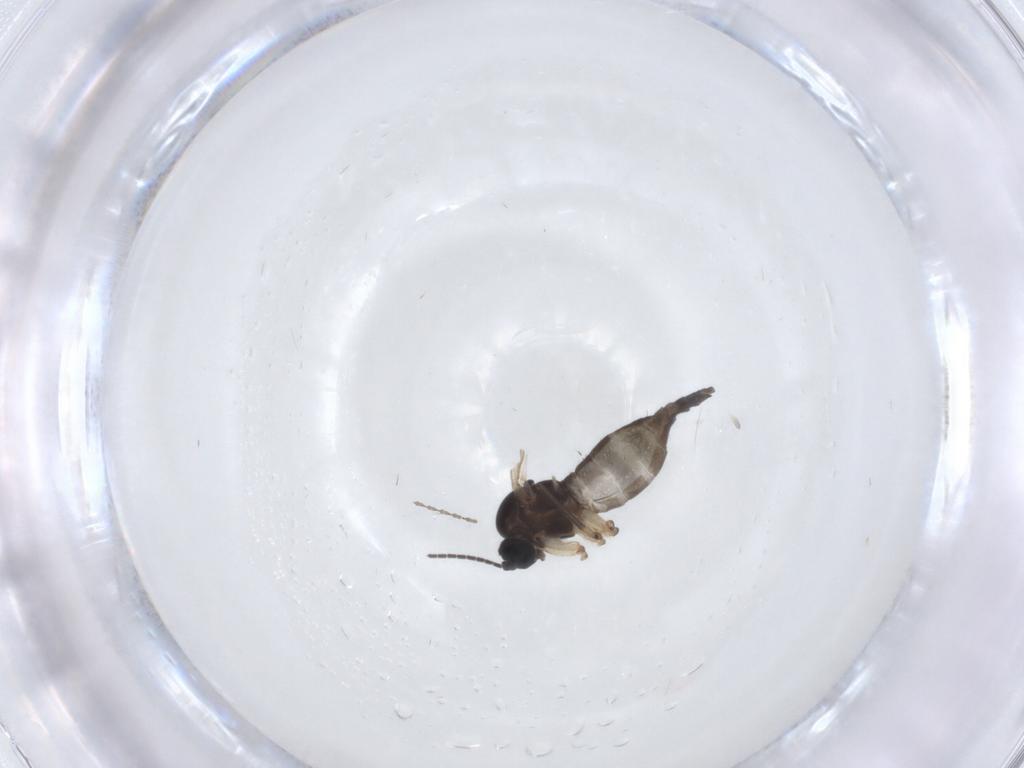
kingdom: Animalia
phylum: Arthropoda
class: Insecta
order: Diptera
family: Sciaridae
